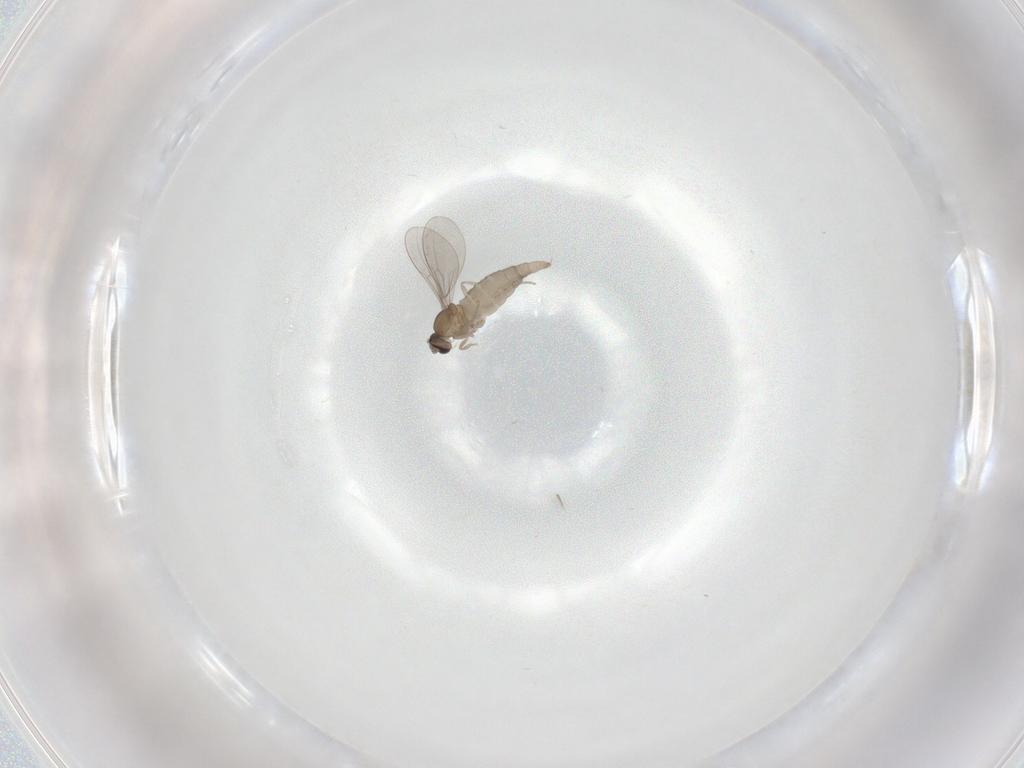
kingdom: Animalia
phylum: Arthropoda
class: Insecta
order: Diptera
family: Cecidomyiidae
